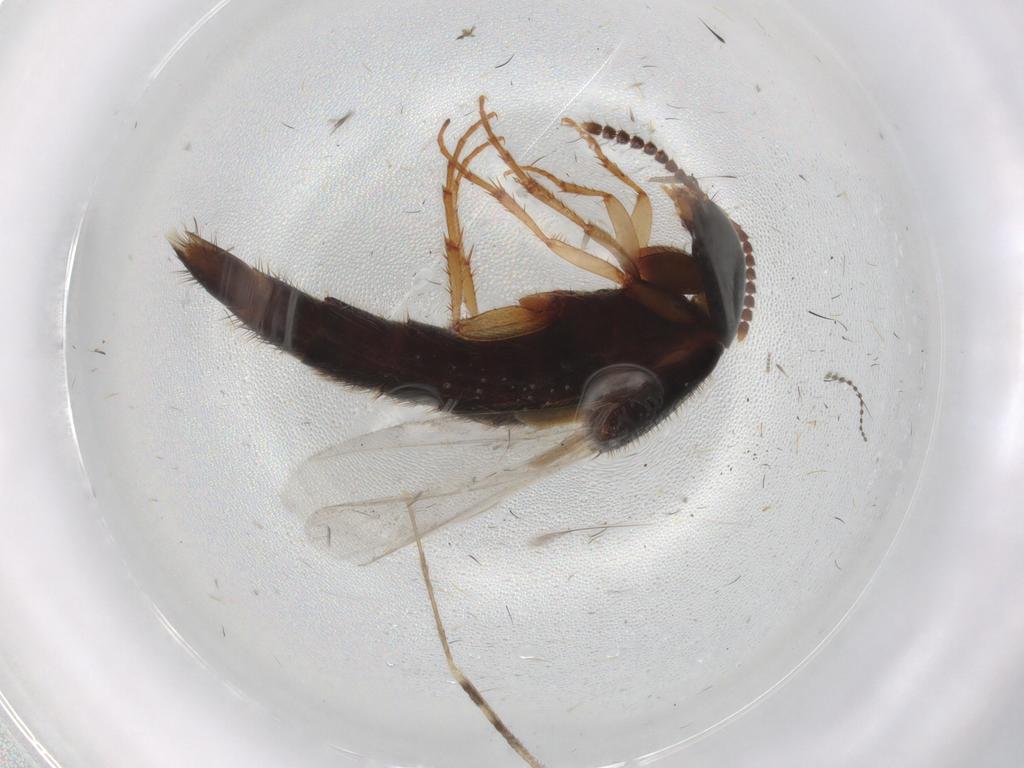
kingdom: Animalia
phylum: Arthropoda
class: Insecta
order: Coleoptera
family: Staphylinidae
